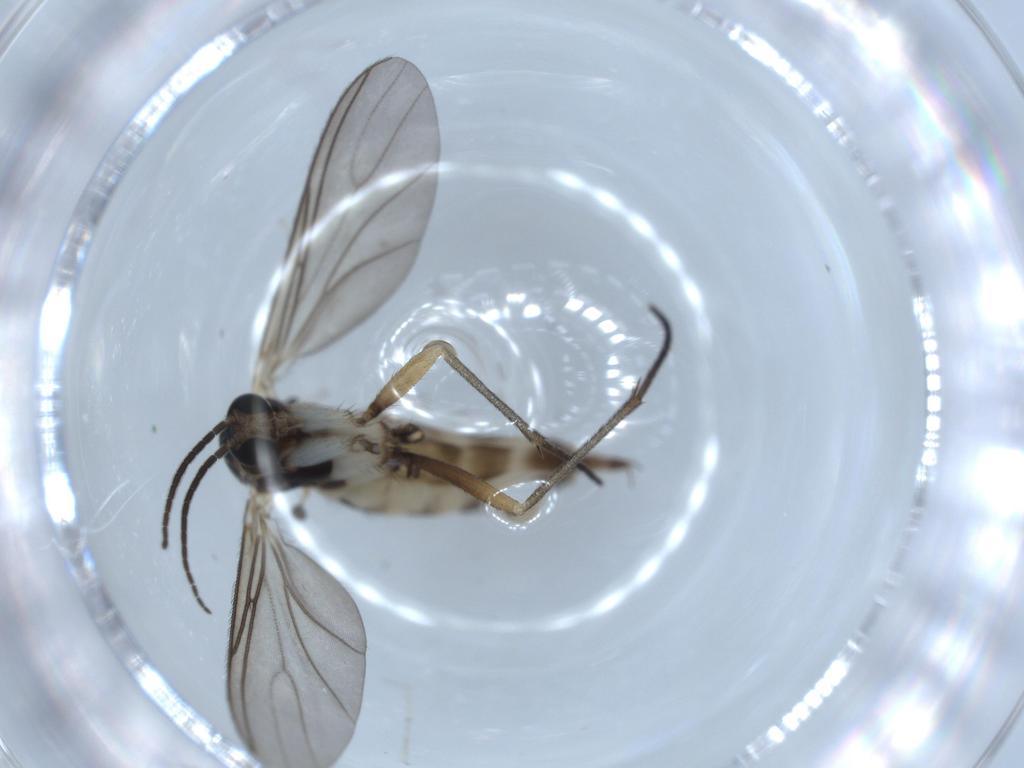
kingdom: Animalia
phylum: Arthropoda
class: Insecta
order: Diptera
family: Sciaridae
